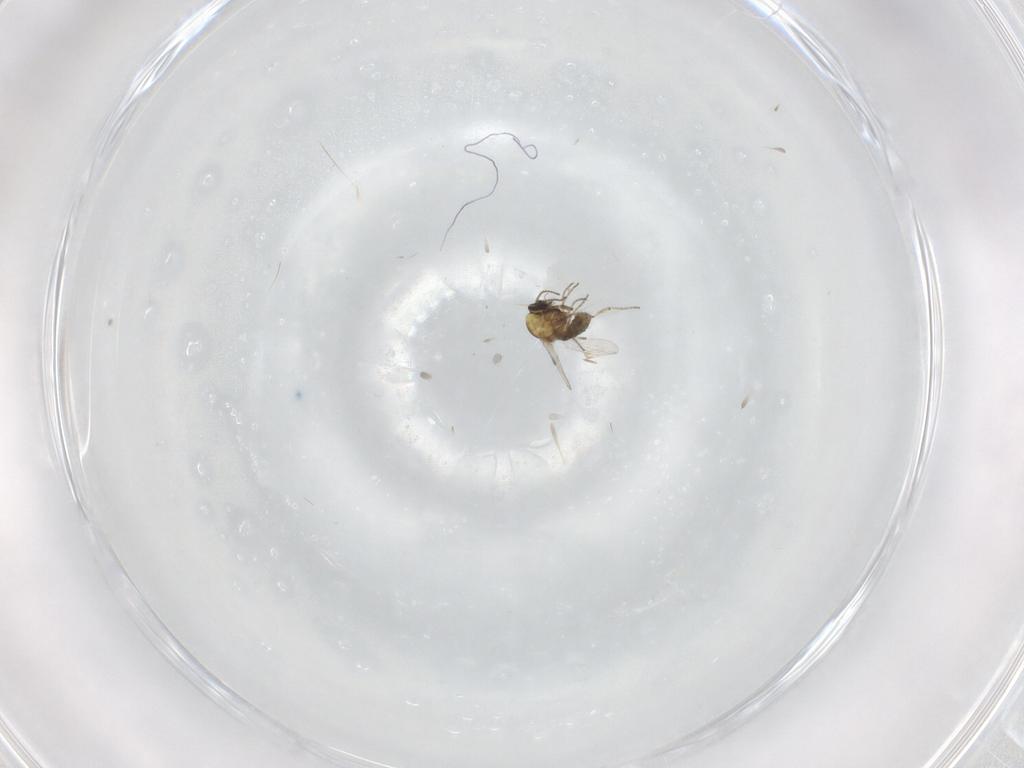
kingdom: Animalia
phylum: Arthropoda
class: Insecta
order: Diptera
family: Ceratopogonidae
